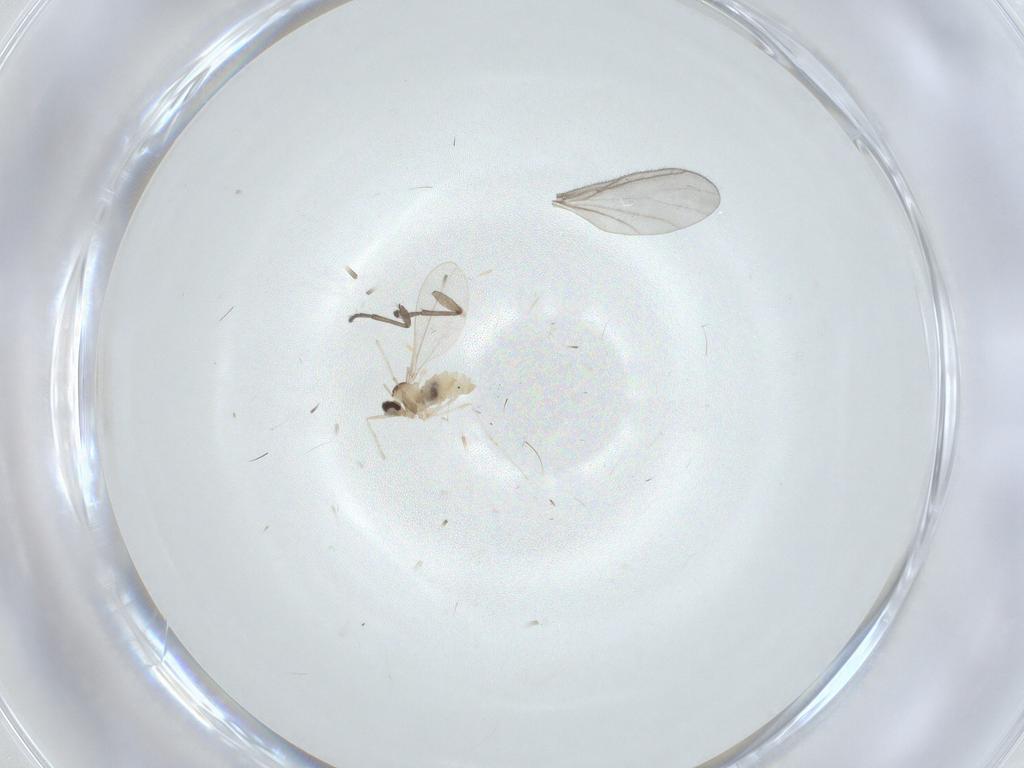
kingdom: Animalia
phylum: Arthropoda
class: Insecta
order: Diptera
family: Cecidomyiidae
